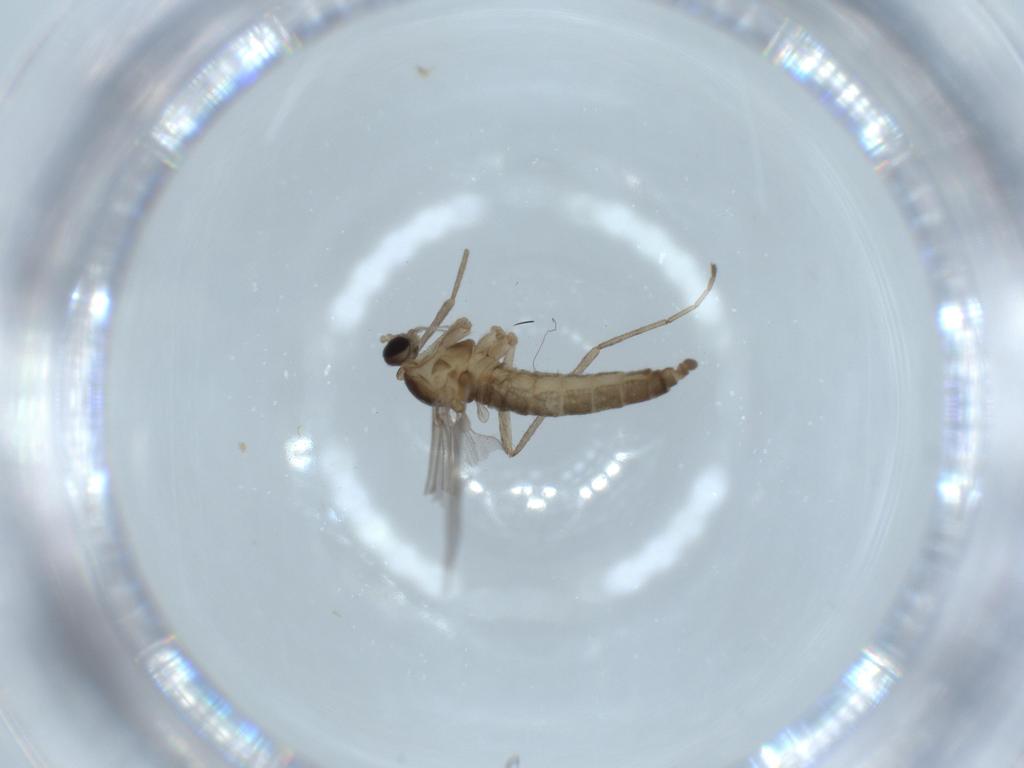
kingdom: Animalia
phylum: Arthropoda
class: Insecta
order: Diptera
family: Cecidomyiidae
